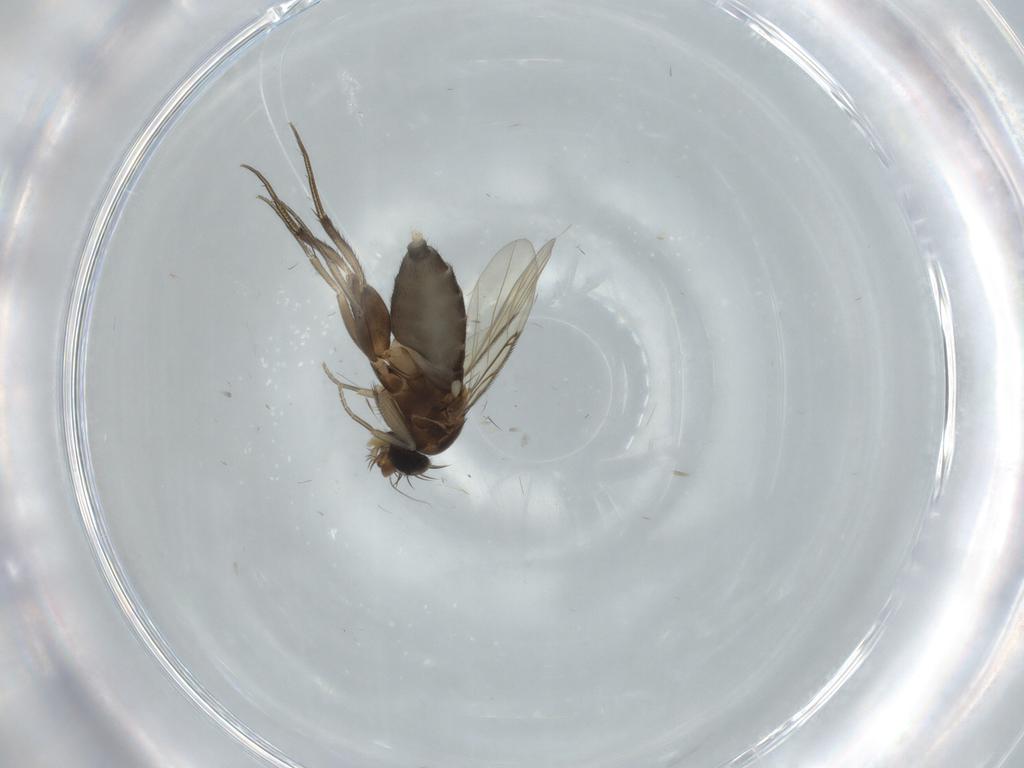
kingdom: Animalia
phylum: Arthropoda
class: Insecta
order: Diptera
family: Phoridae
